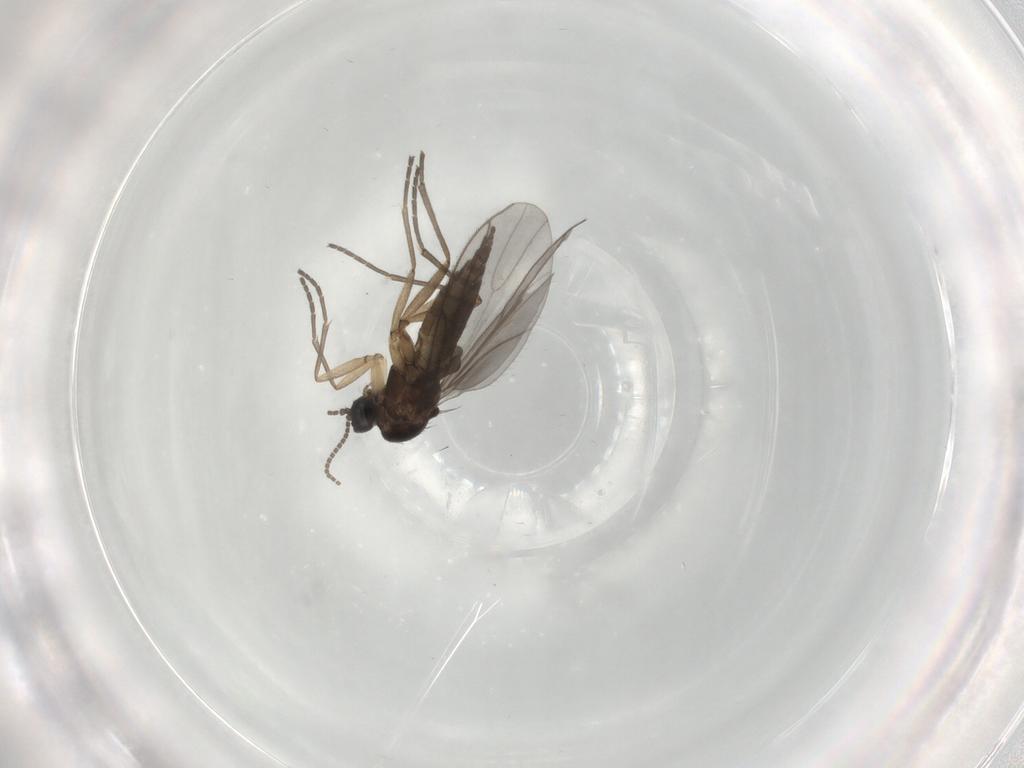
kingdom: Animalia
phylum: Arthropoda
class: Insecta
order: Diptera
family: Sciaridae
